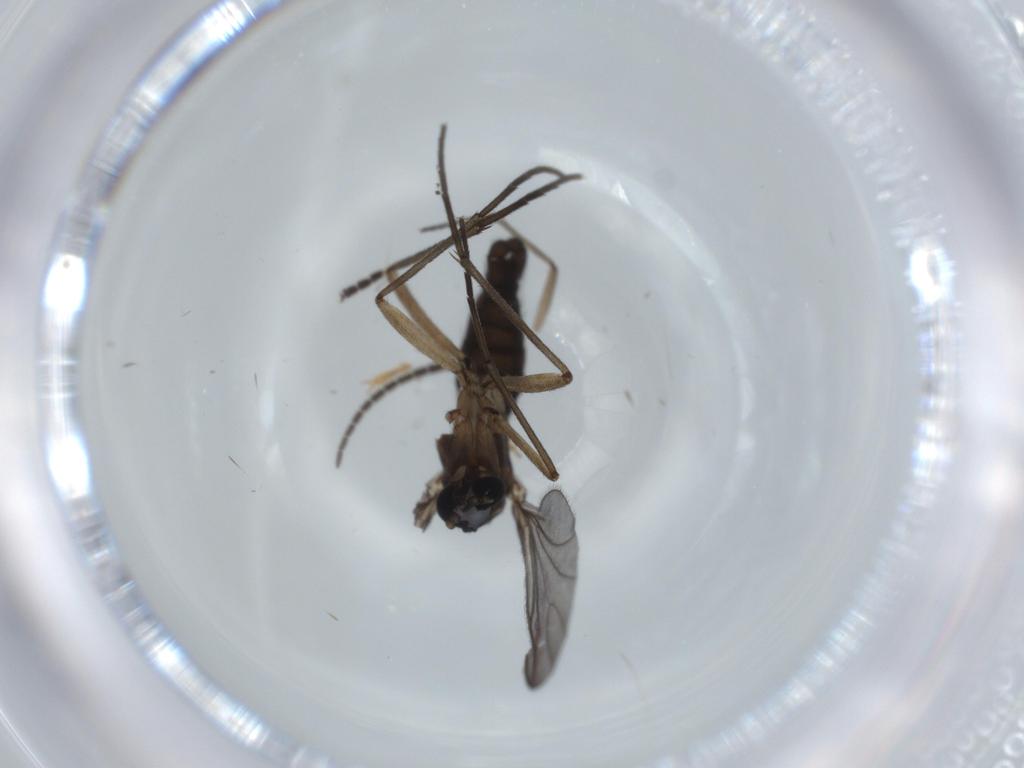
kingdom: Animalia
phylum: Arthropoda
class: Insecta
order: Diptera
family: Sciaridae
